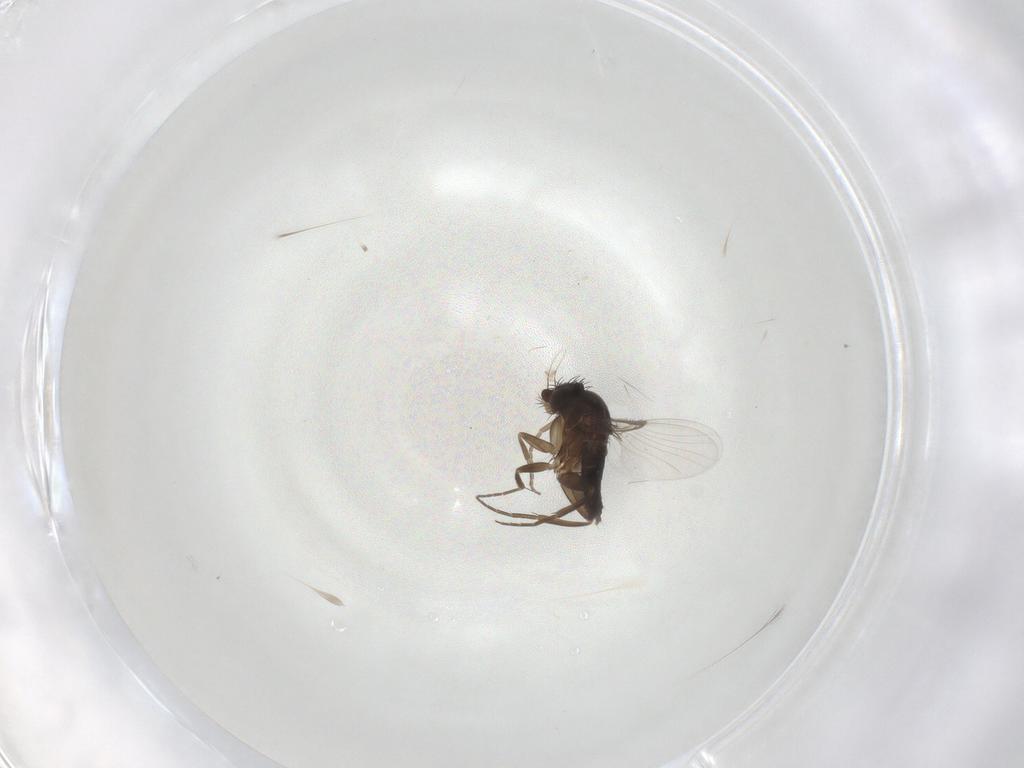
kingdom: Animalia
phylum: Arthropoda
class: Insecta
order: Diptera
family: Phoridae
